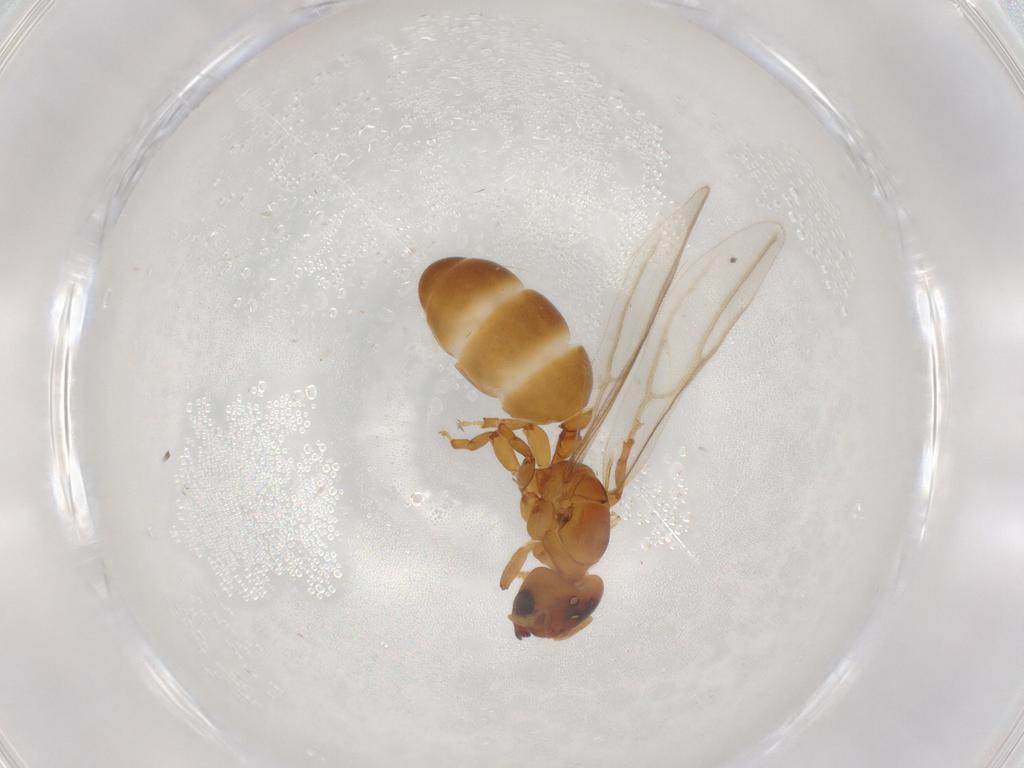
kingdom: Animalia
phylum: Arthropoda
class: Insecta
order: Hymenoptera
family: Formicidae
